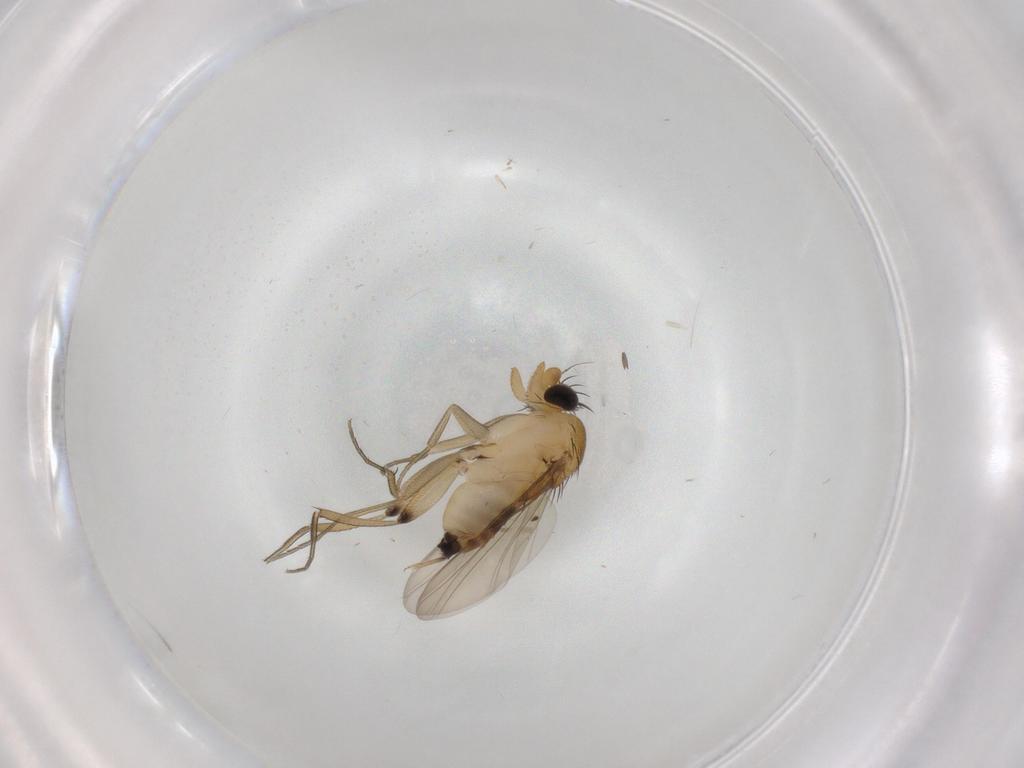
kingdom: Animalia
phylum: Arthropoda
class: Insecta
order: Diptera
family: Phoridae
